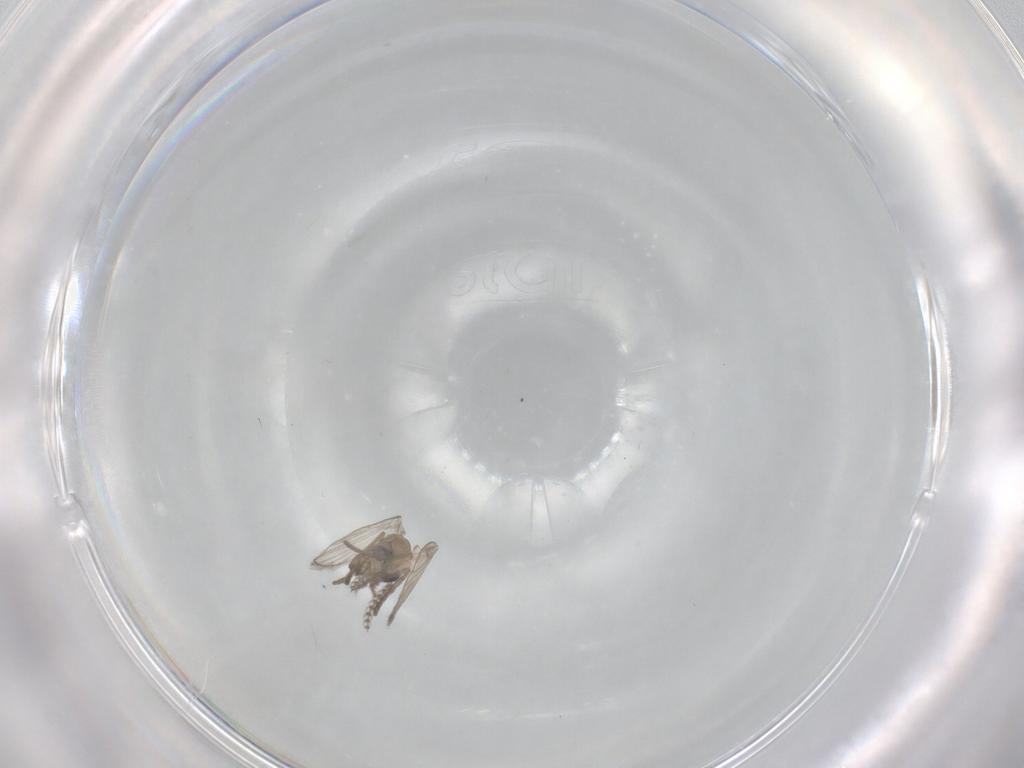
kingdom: Animalia
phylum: Arthropoda
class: Insecta
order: Diptera
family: Psychodidae
